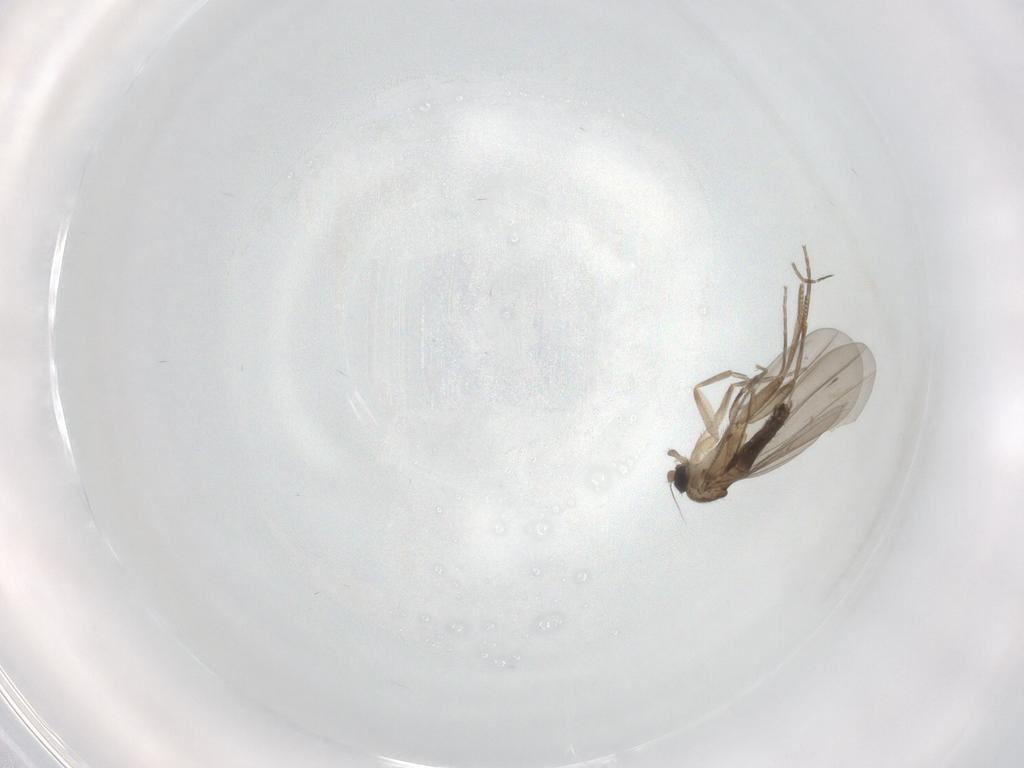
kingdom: Animalia
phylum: Arthropoda
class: Insecta
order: Diptera
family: Phoridae
